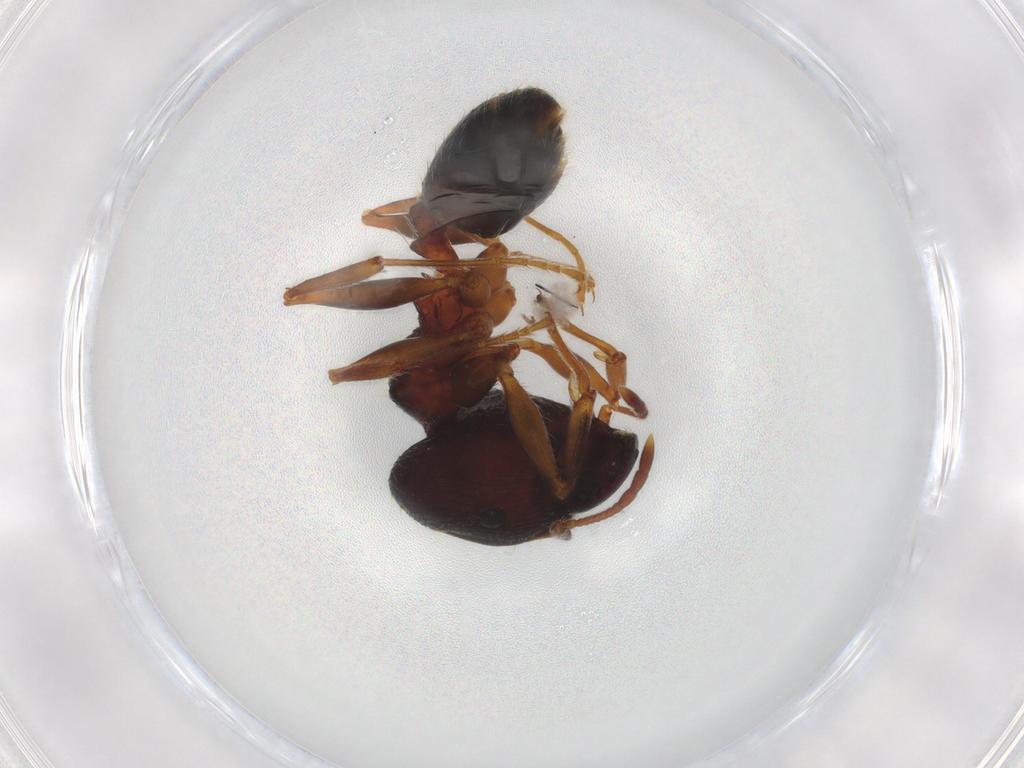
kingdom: Animalia
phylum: Arthropoda
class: Insecta
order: Hymenoptera
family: Formicidae
